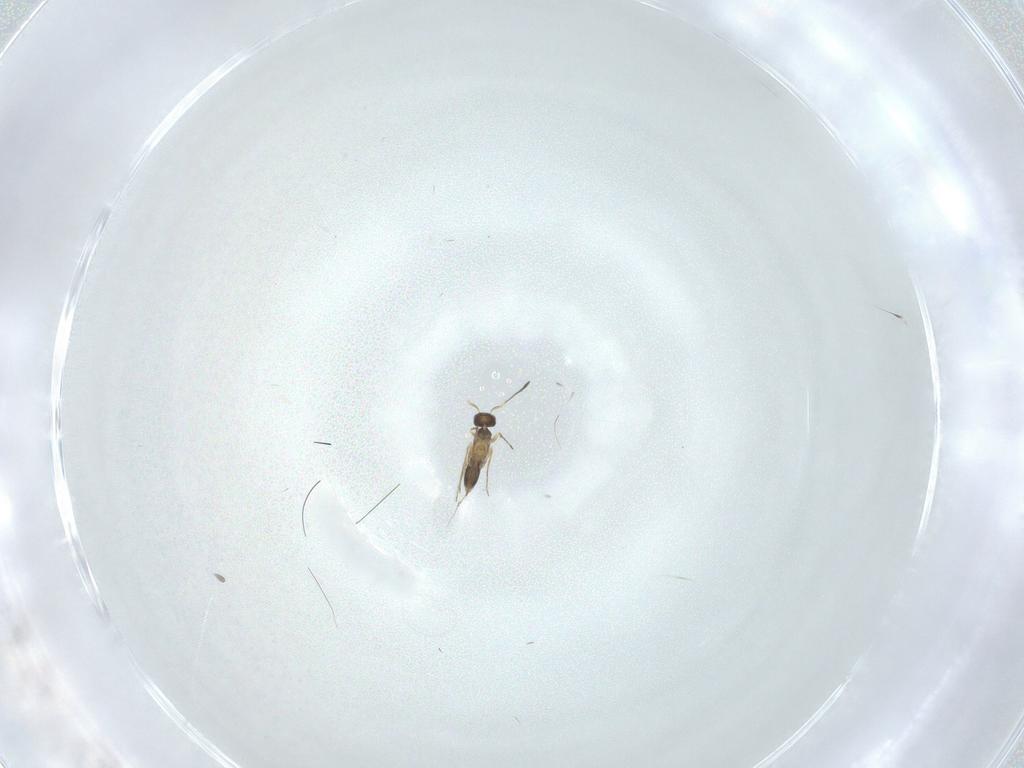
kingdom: Animalia
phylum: Arthropoda
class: Insecta
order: Hymenoptera
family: Mymaridae
